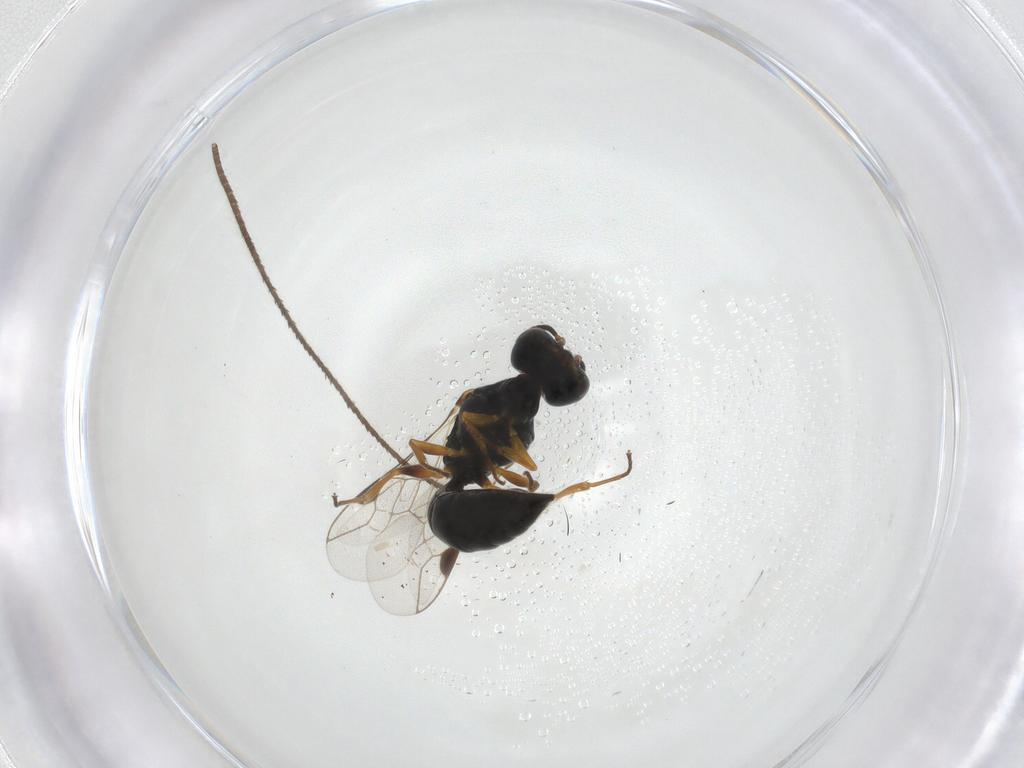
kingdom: Animalia
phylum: Arthropoda
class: Insecta
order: Hymenoptera
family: Crabronidae
